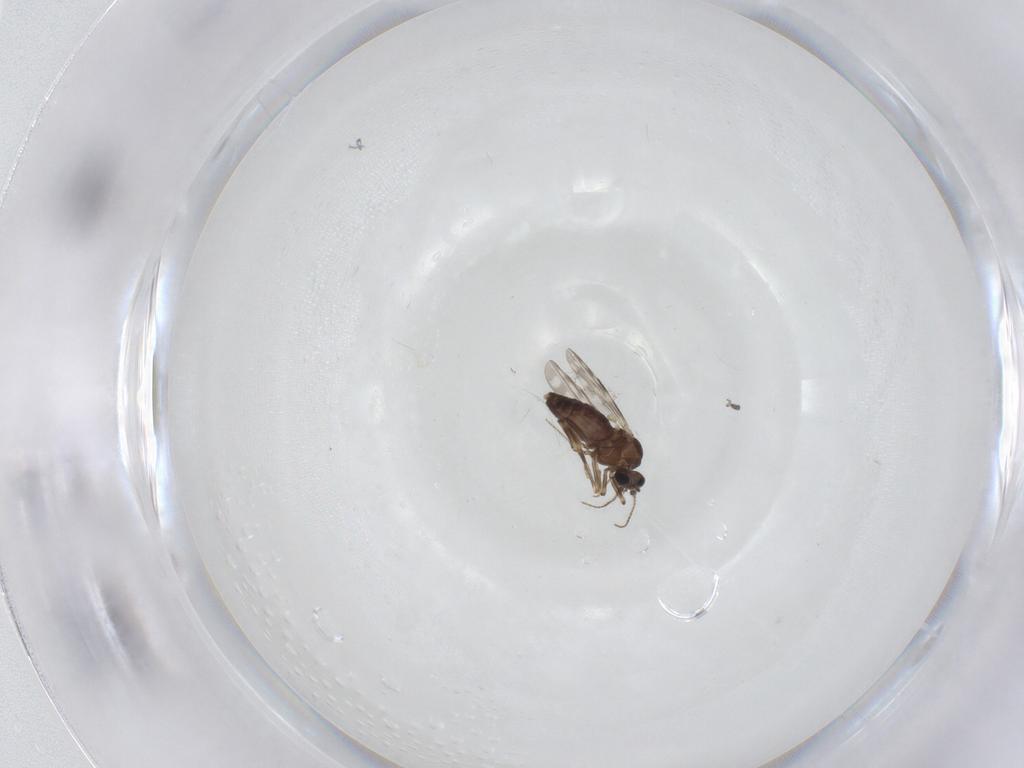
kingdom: Animalia
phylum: Arthropoda
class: Insecta
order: Diptera
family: Ceratopogonidae
